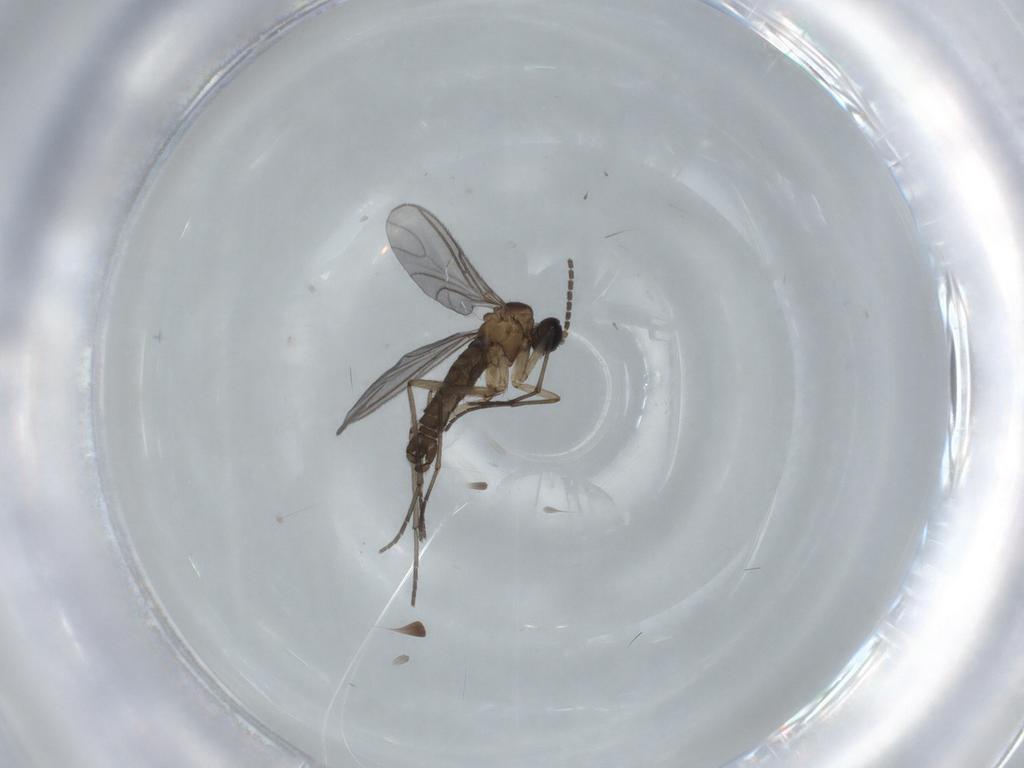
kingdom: Animalia
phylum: Arthropoda
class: Insecta
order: Diptera
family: Sciaridae
